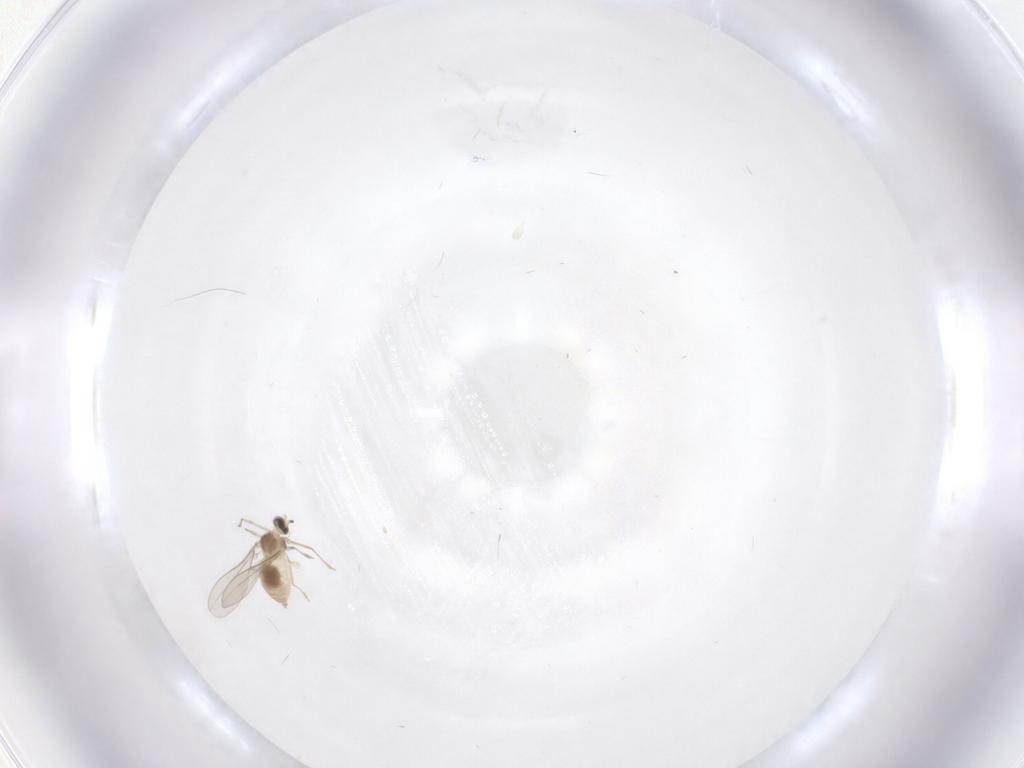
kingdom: Animalia
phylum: Arthropoda
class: Insecta
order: Diptera
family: Cecidomyiidae
